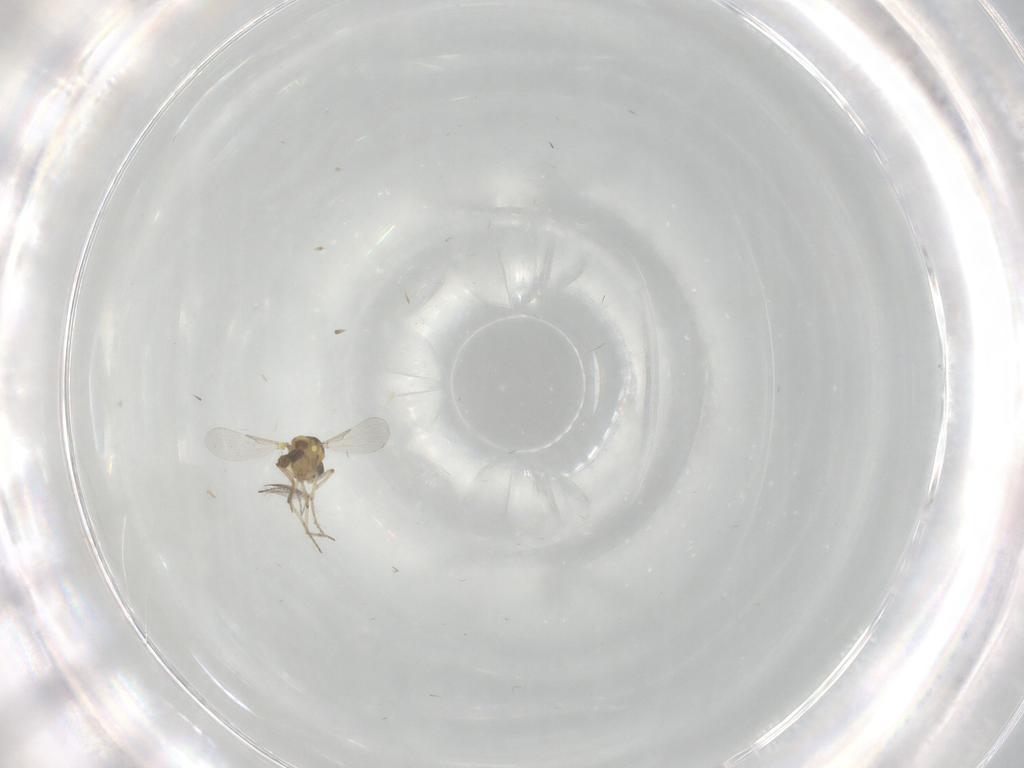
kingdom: Animalia
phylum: Arthropoda
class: Insecta
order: Diptera
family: Ceratopogonidae
